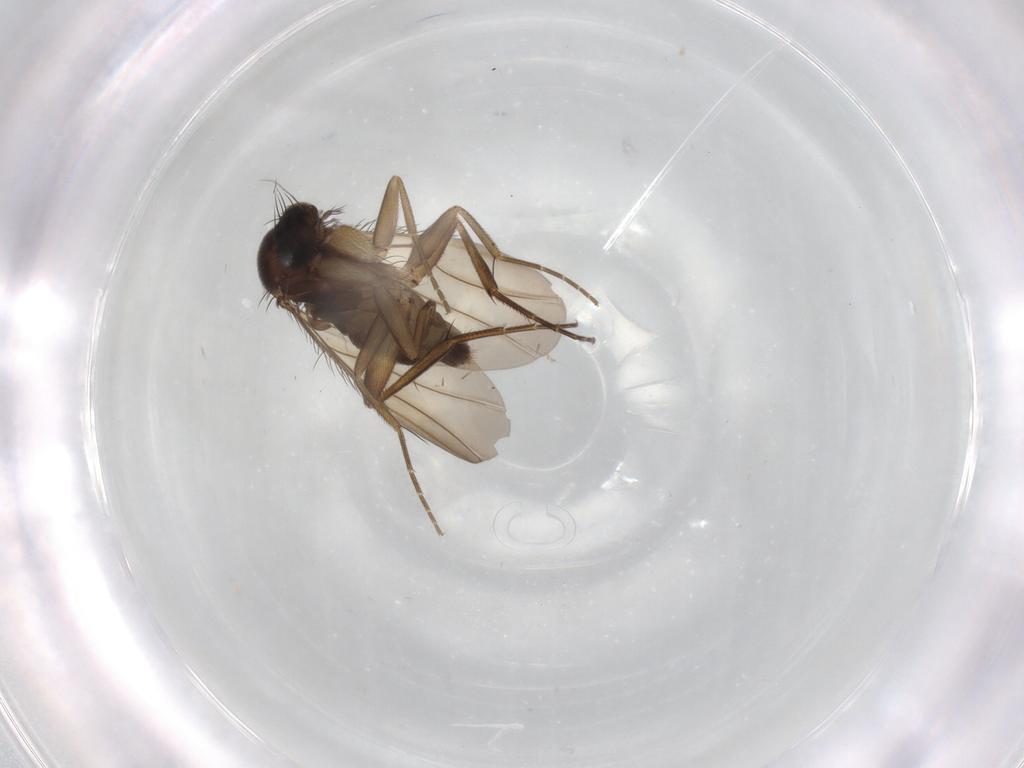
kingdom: Animalia
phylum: Arthropoda
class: Insecta
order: Diptera
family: Phoridae
